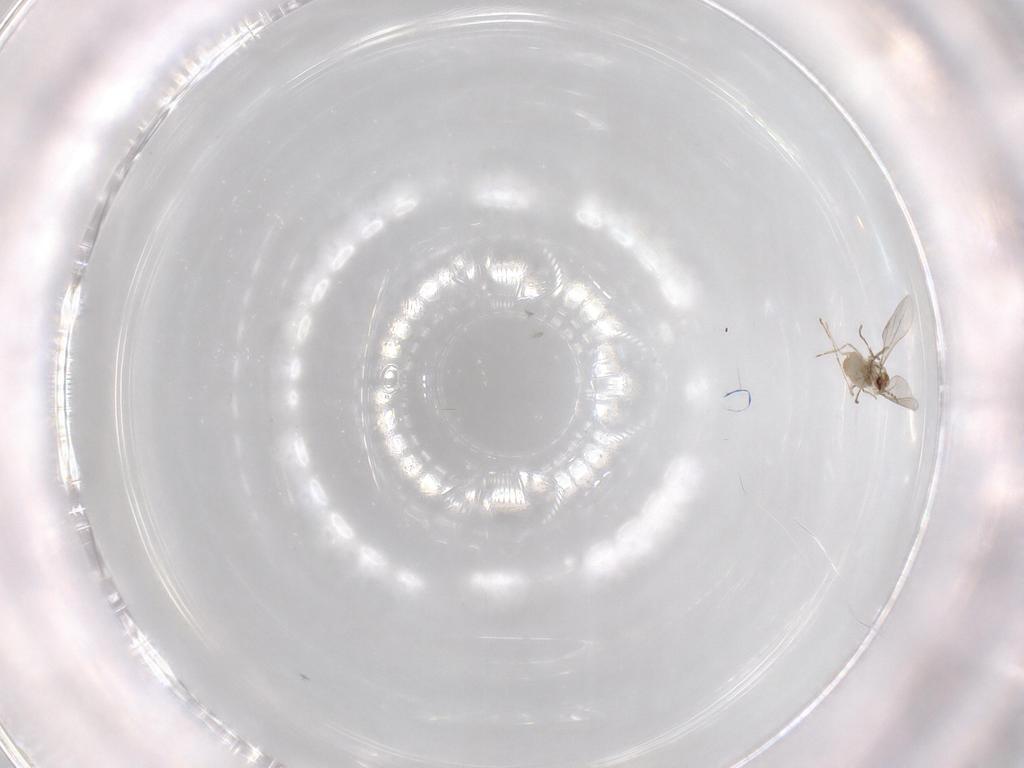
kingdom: Animalia
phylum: Arthropoda
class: Insecta
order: Diptera
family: Cecidomyiidae
